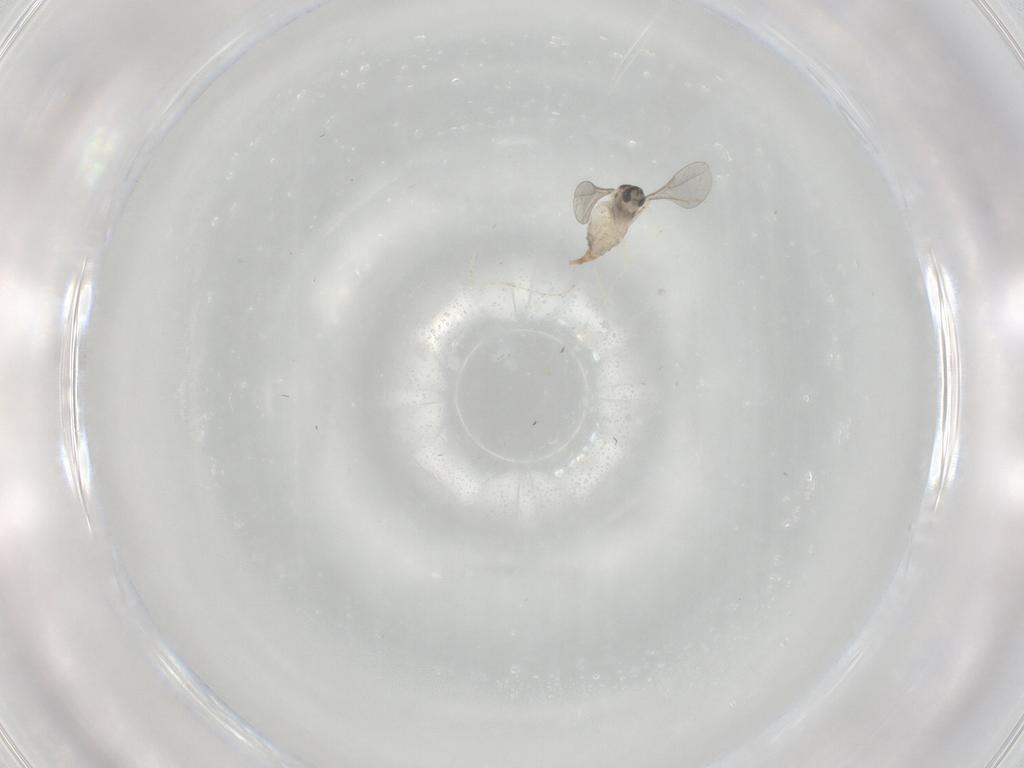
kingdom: Animalia
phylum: Arthropoda
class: Insecta
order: Diptera
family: Cecidomyiidae
